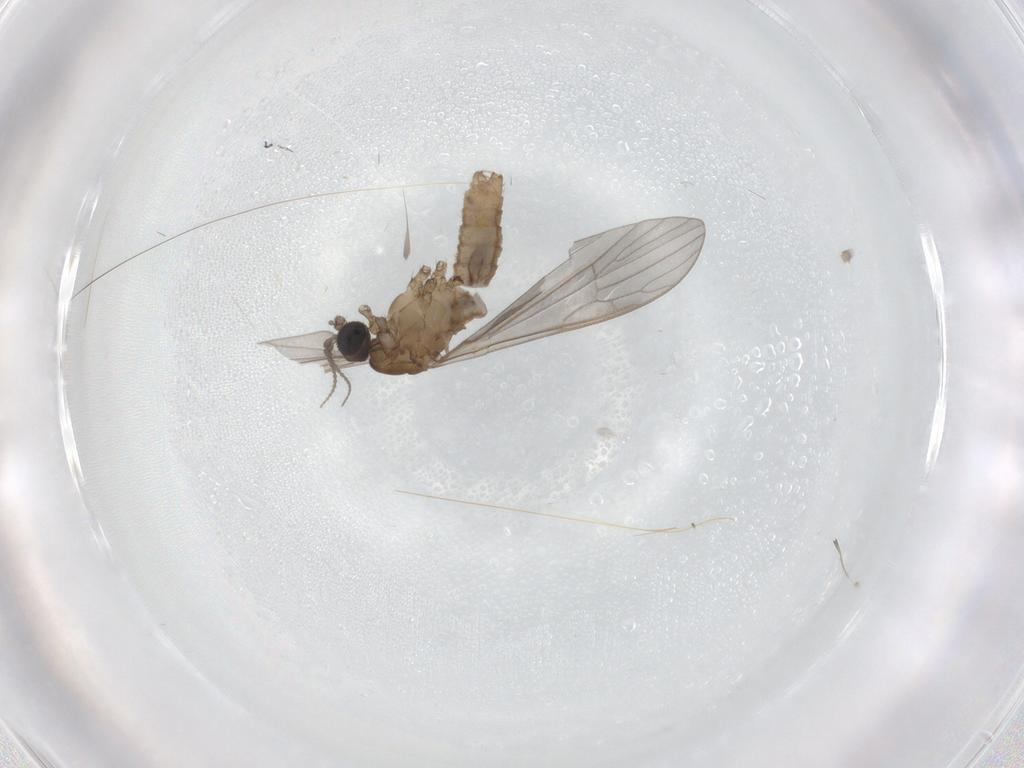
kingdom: Animalia
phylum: Arthropoda
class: Insecta
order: Diptera
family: Limoniidae
